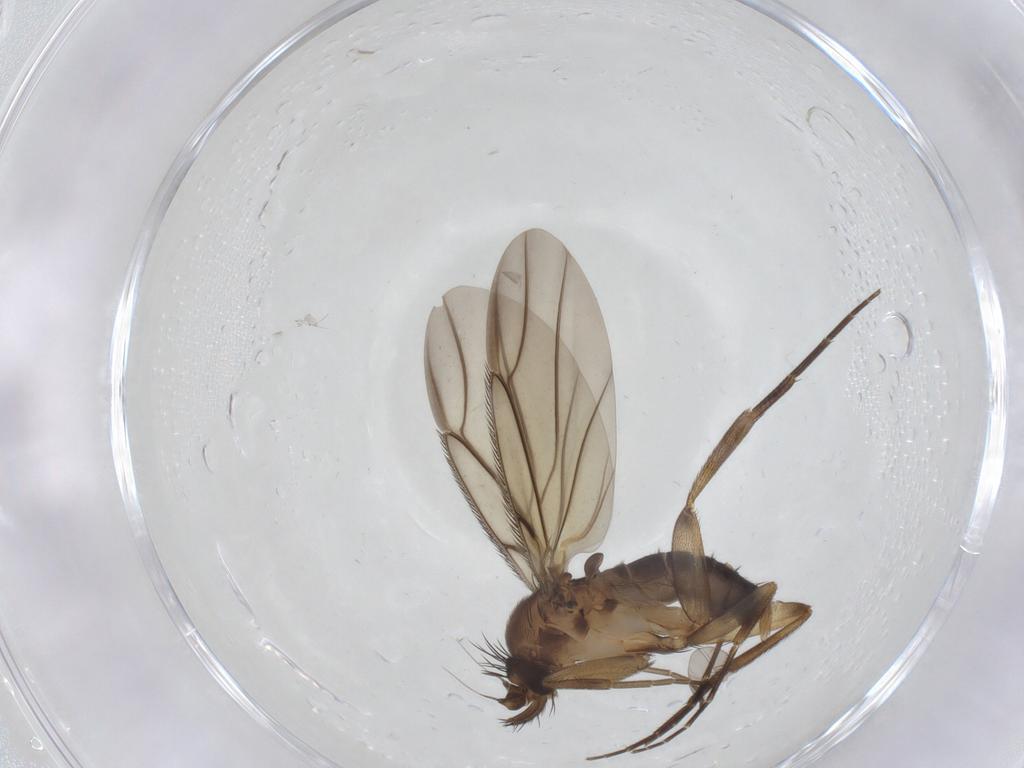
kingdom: Animalia
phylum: Arthropoda
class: Insecta
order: Diptera
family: Phoridae
